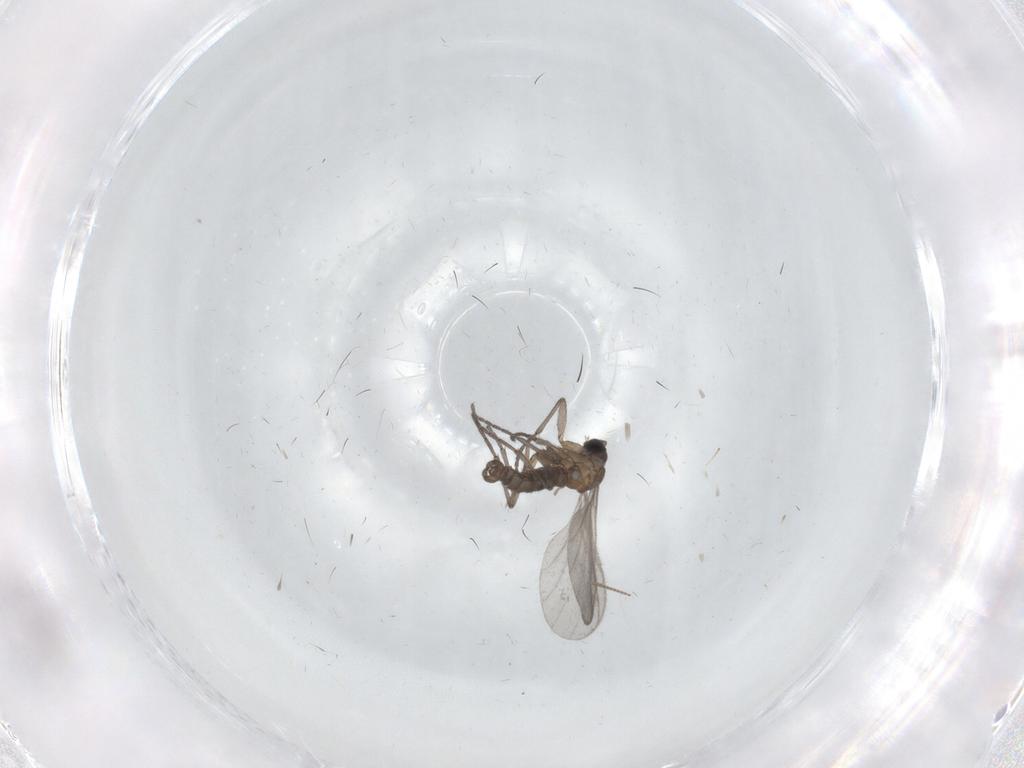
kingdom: Animalia
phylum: Arthropoda
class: Insecta
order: Diptera
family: Sciaridae
